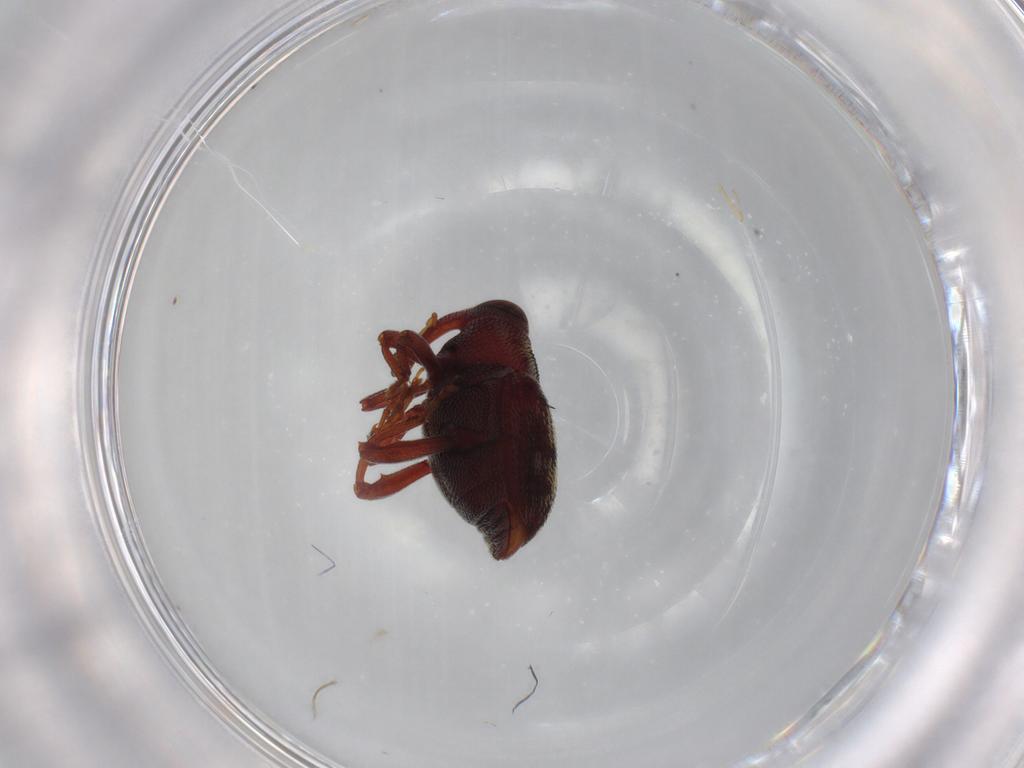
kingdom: Animalia
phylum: Arthropoda
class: Insecta
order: Coleoptera
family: Curculionidae
